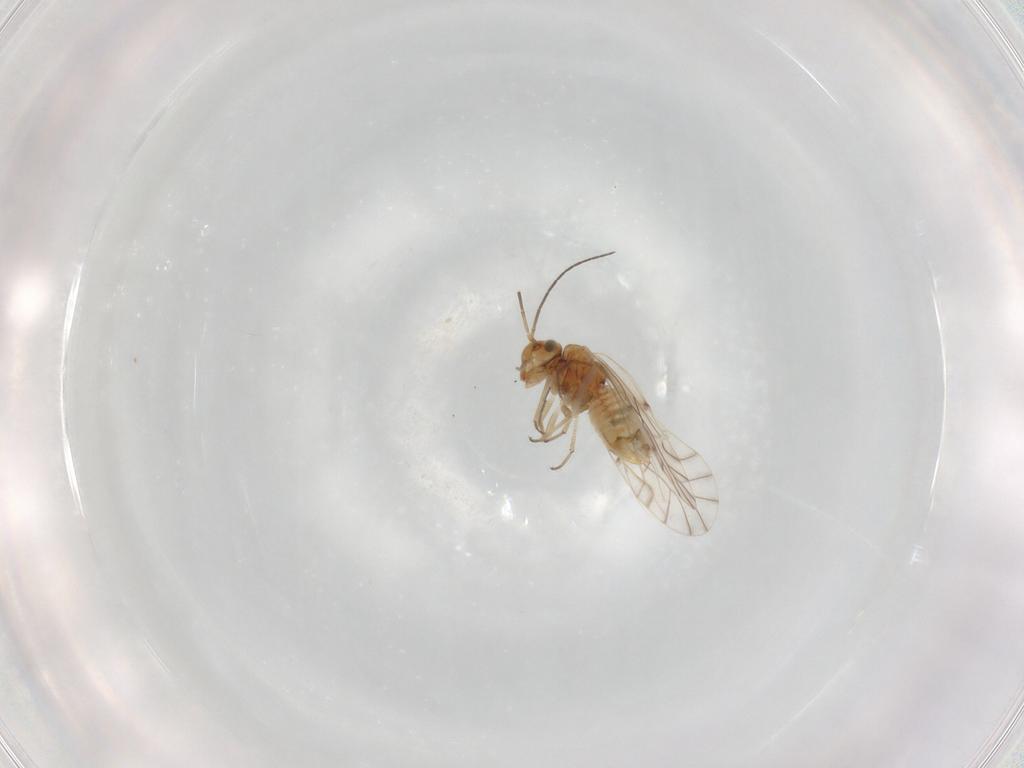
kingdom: Animalia
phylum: Arthropoda
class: Insecta
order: Psocodea
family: Lachesillidae
